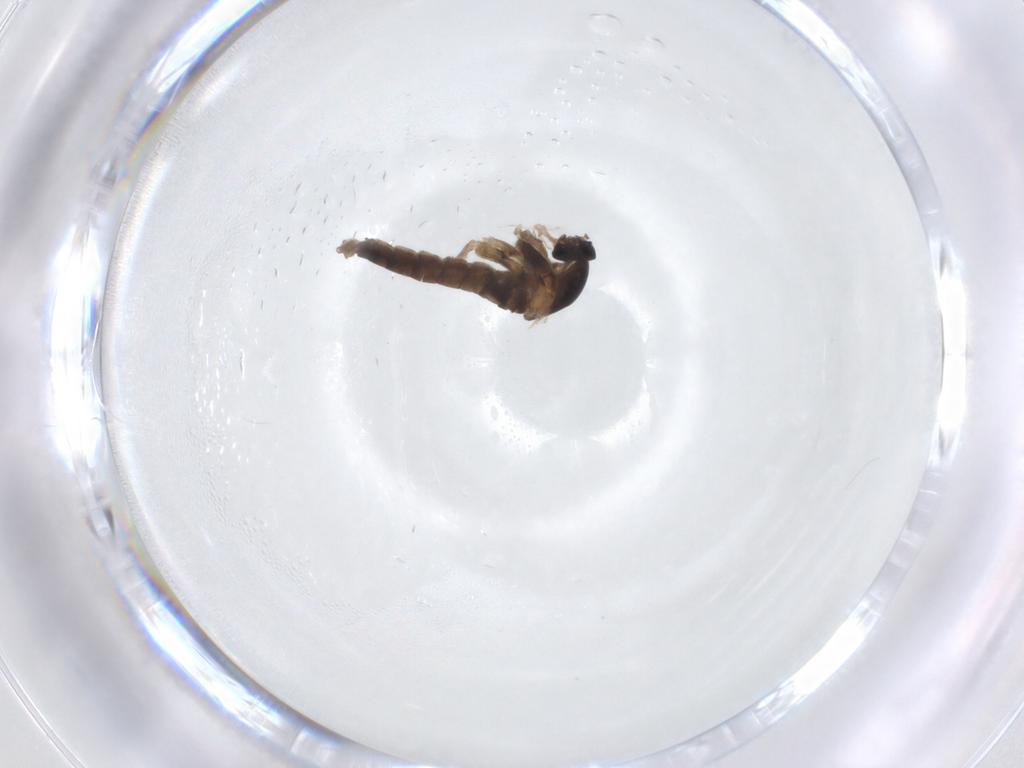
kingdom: Animalia
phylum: Arthropoda
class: Insecta
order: Diptera
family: Cecidomyiidae
